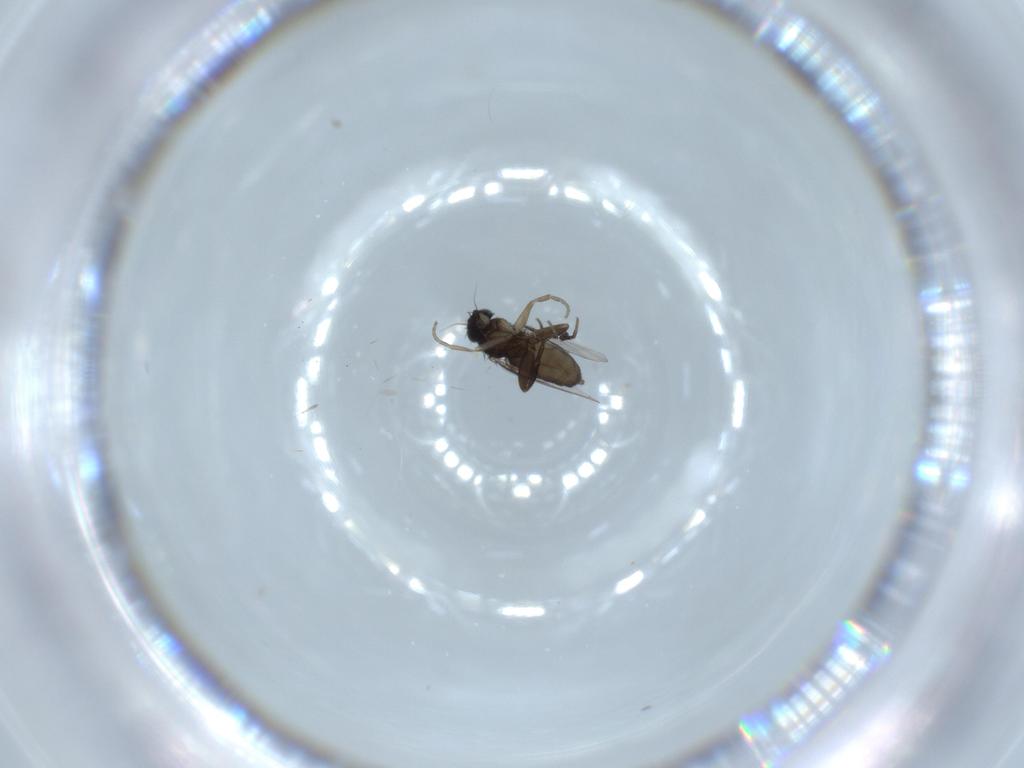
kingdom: Animalia
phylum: Arthropoda
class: Insecta
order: Diptera
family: Phoridae
